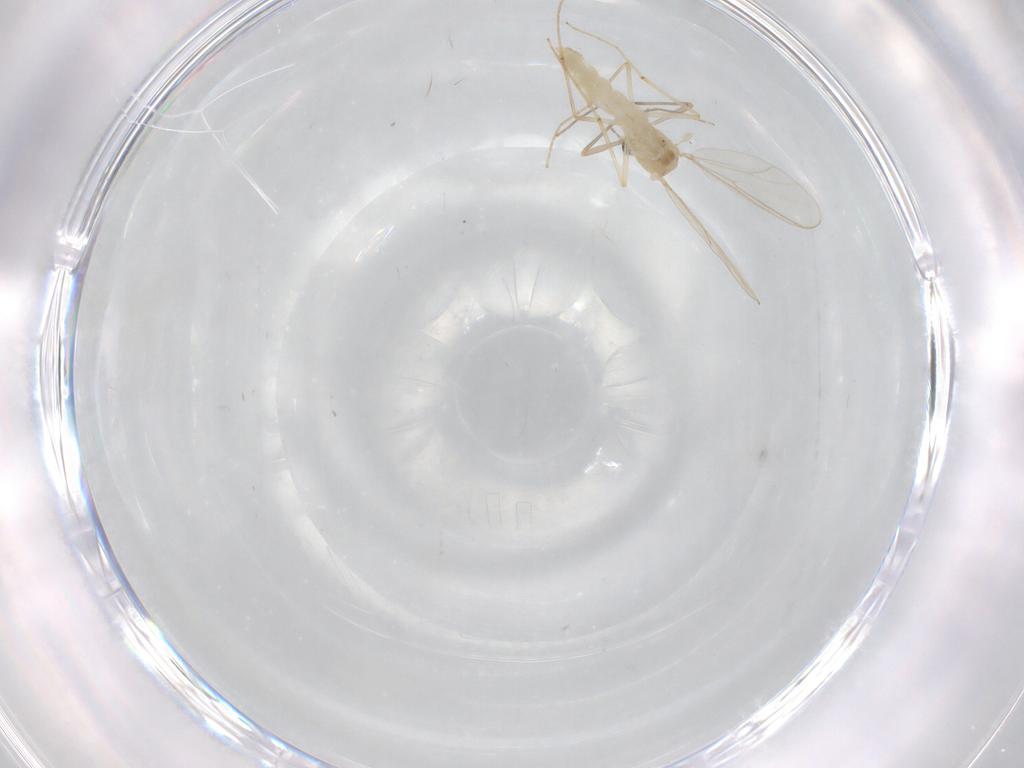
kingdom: Animalia
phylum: Arthropoda
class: Insecta
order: Diptera
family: Chironomidae
